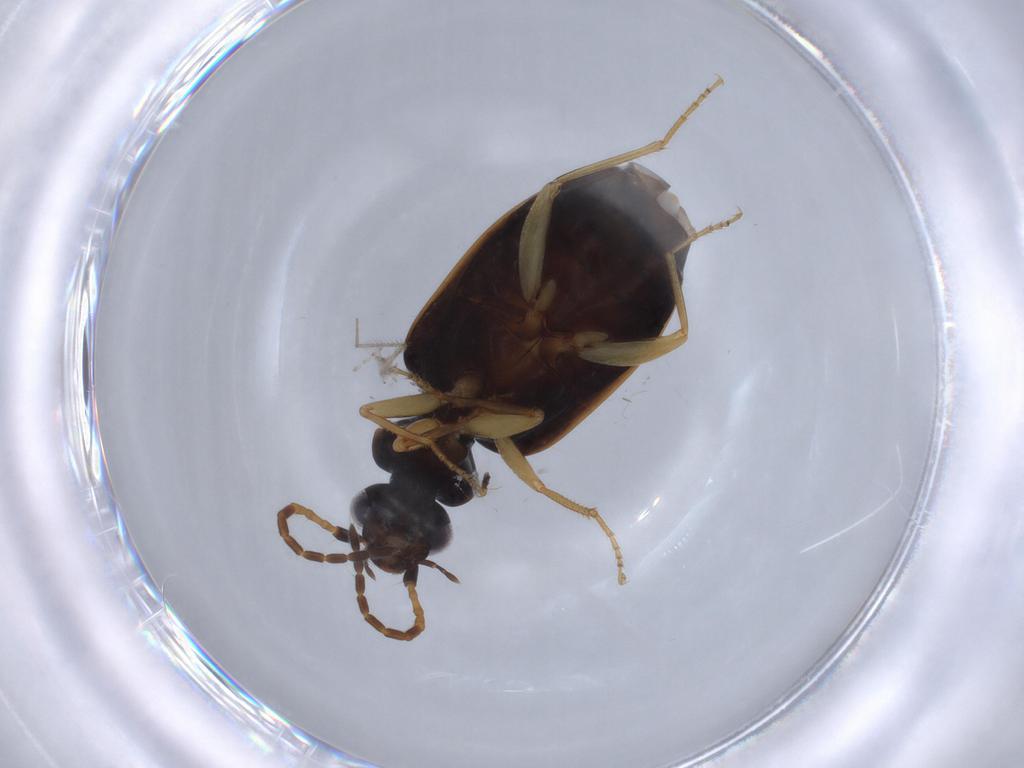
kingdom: Animalia
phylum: Arthropoda
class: Insecta
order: Coleoptera
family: Carabidae
